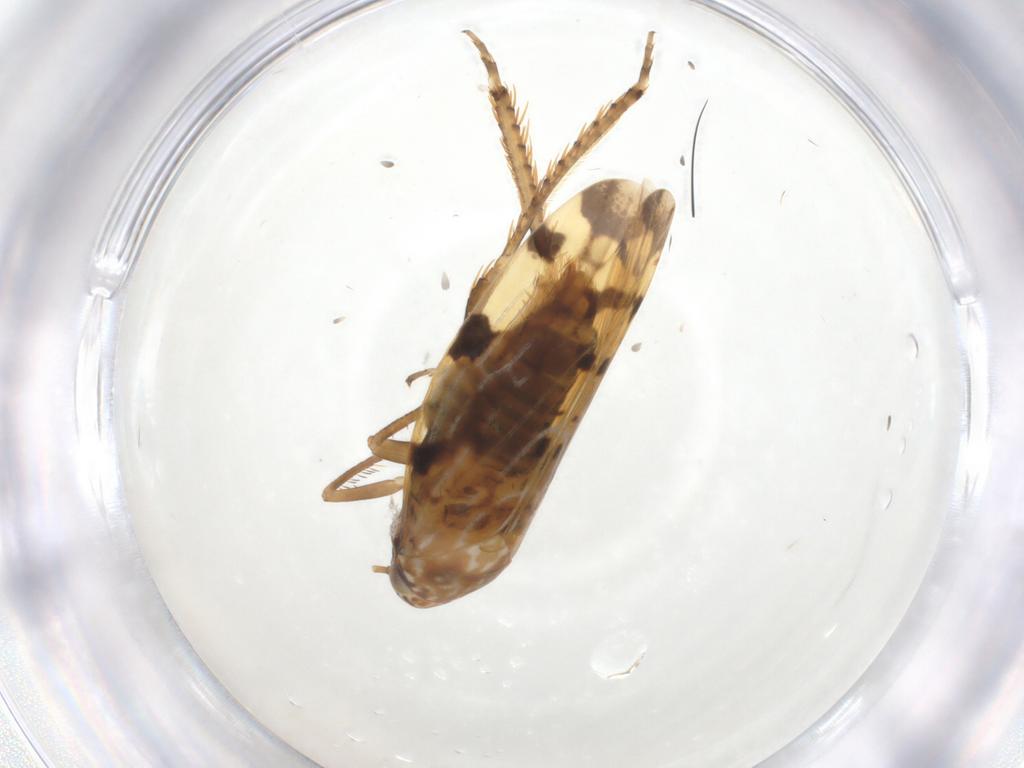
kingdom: Animalia
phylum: Arthropoda
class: Insecta
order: Hemiptera
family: Cicadellidae
